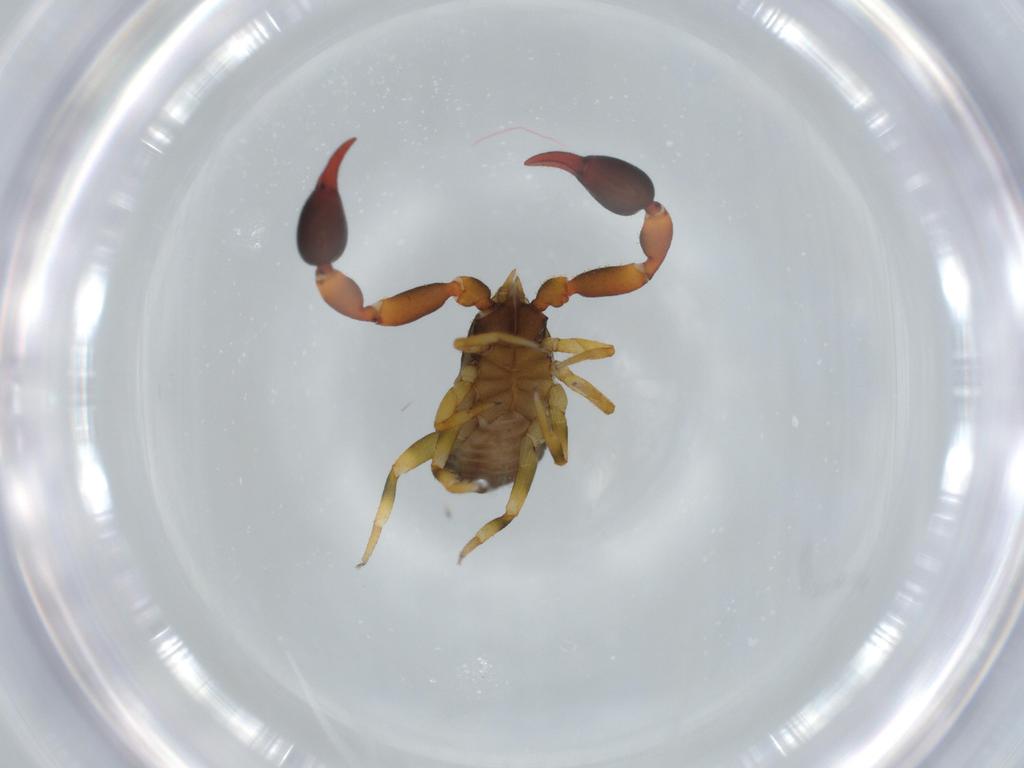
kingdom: Animalia
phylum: Arthropoda
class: Arachnida
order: Pseudoscorpiones
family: Chernetidae
